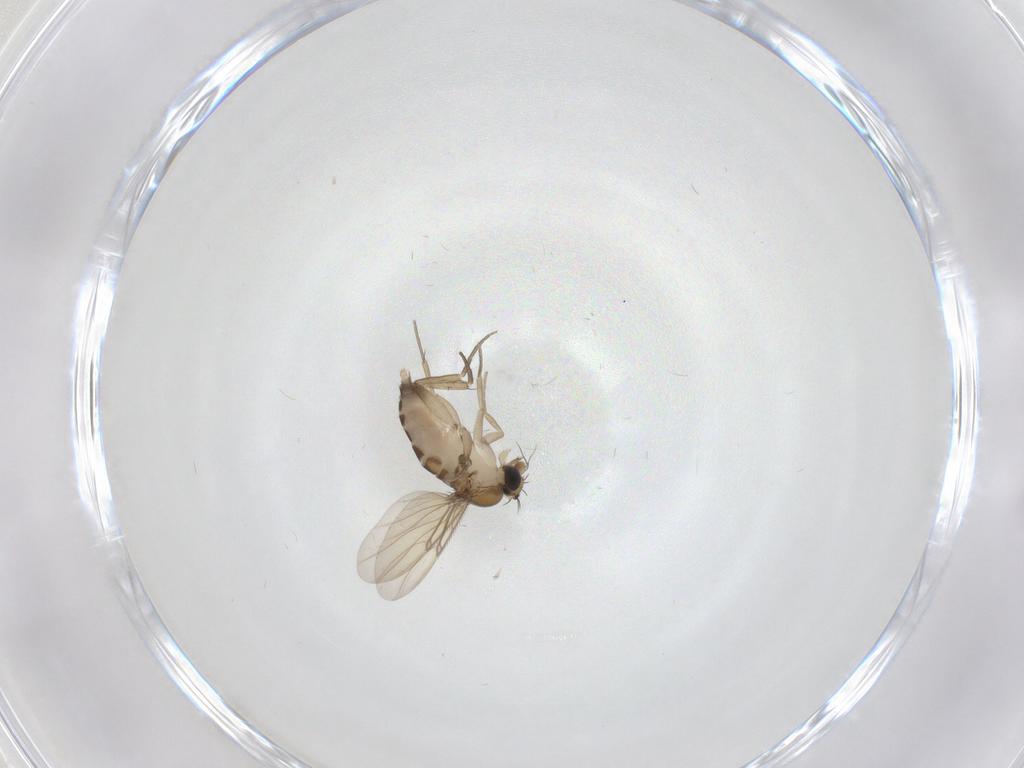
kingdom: Animalia
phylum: Arthropoda
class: Insecta
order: Diptera
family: Phoridae
